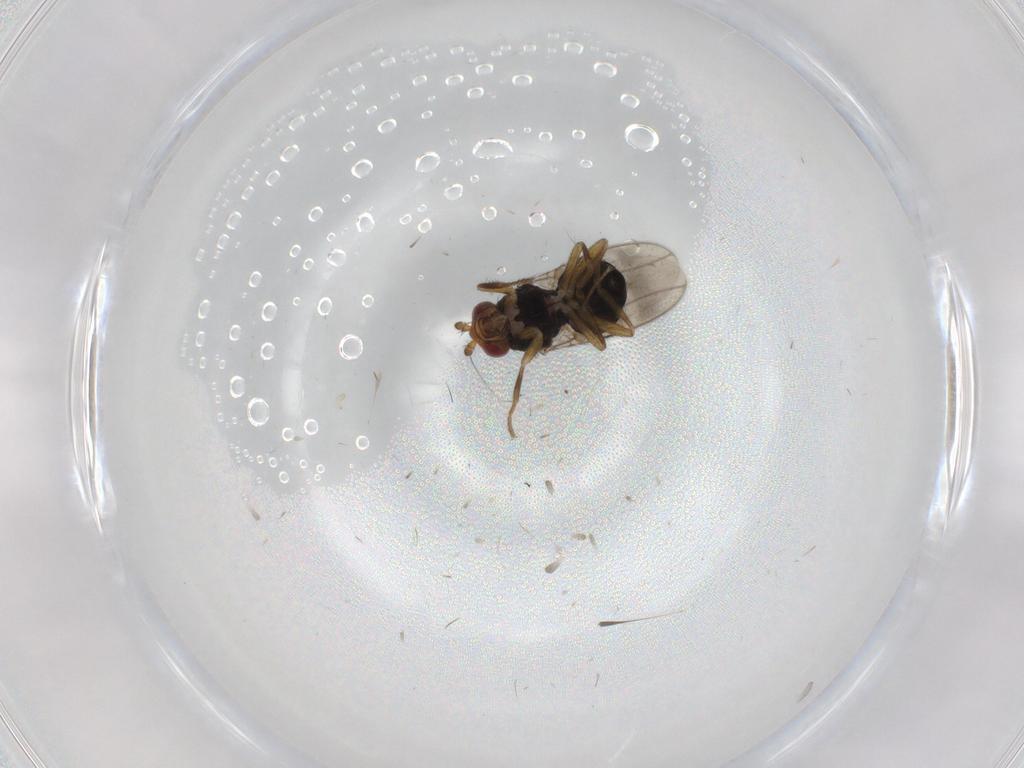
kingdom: Animalia
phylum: Arthropoda
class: Insecta
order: Diptera
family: Sphaeroceridae
